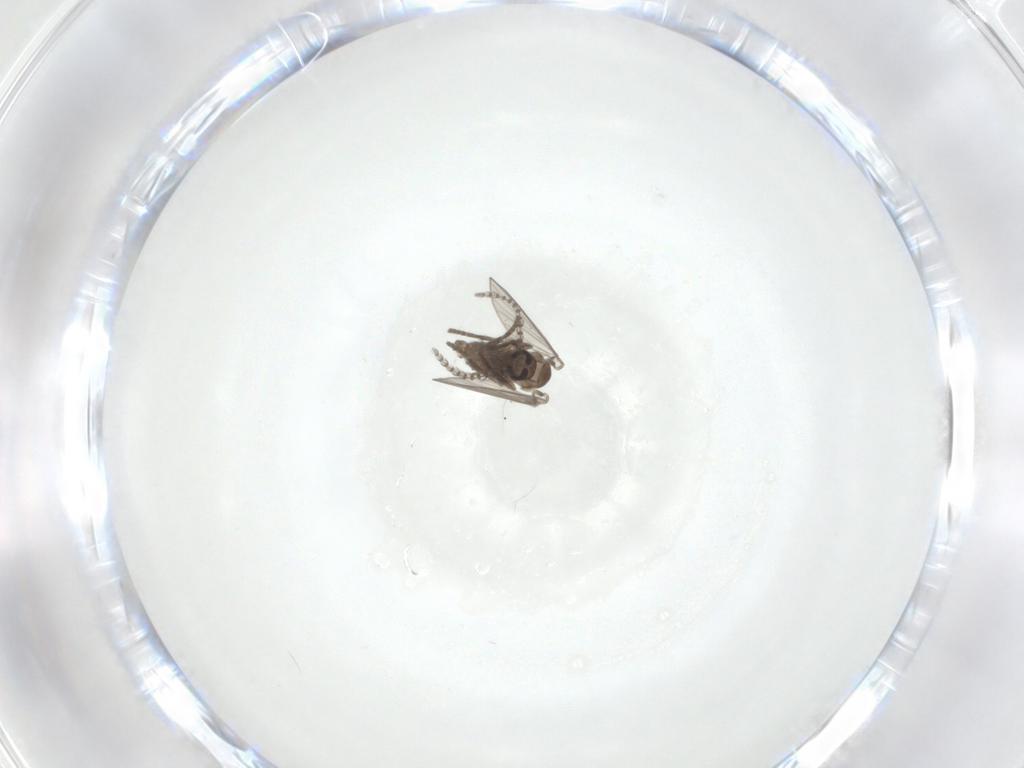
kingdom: Animalia
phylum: Arthropoda
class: Insecta
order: Diptera
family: Psychodidae
